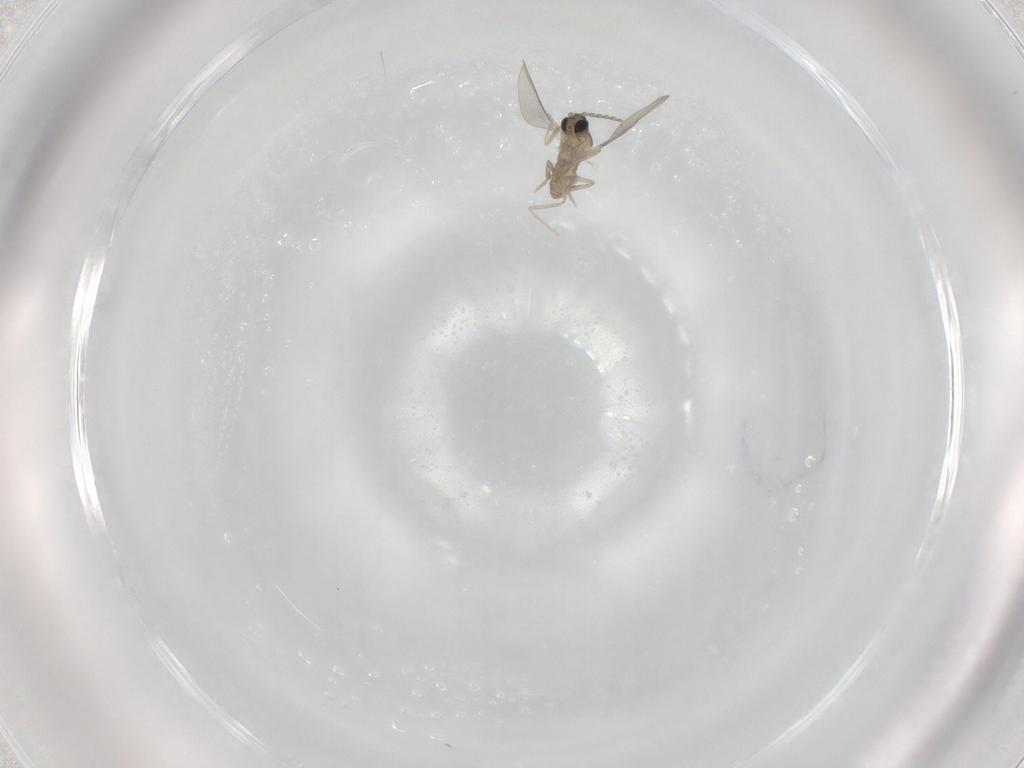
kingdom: Animalia
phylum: Arthropoda
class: Insecta
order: Diptera
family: Cecidomyiidae
